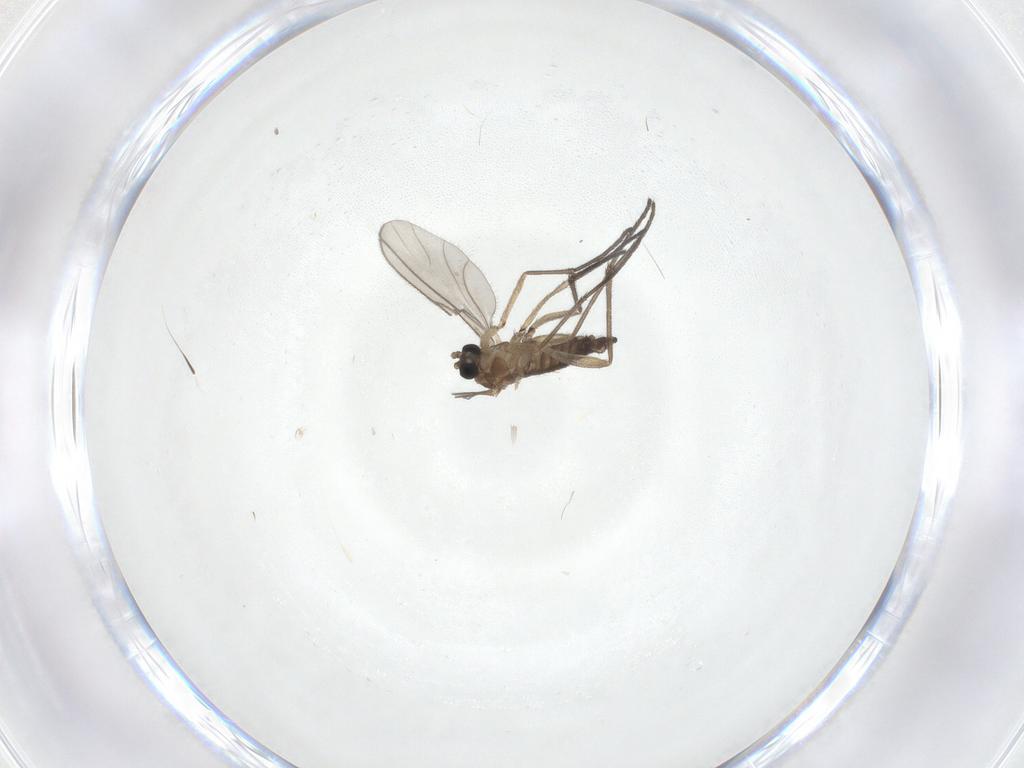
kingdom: Animalia
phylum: Arthropoda
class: Insecta
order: Diptera
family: Sciaridae
